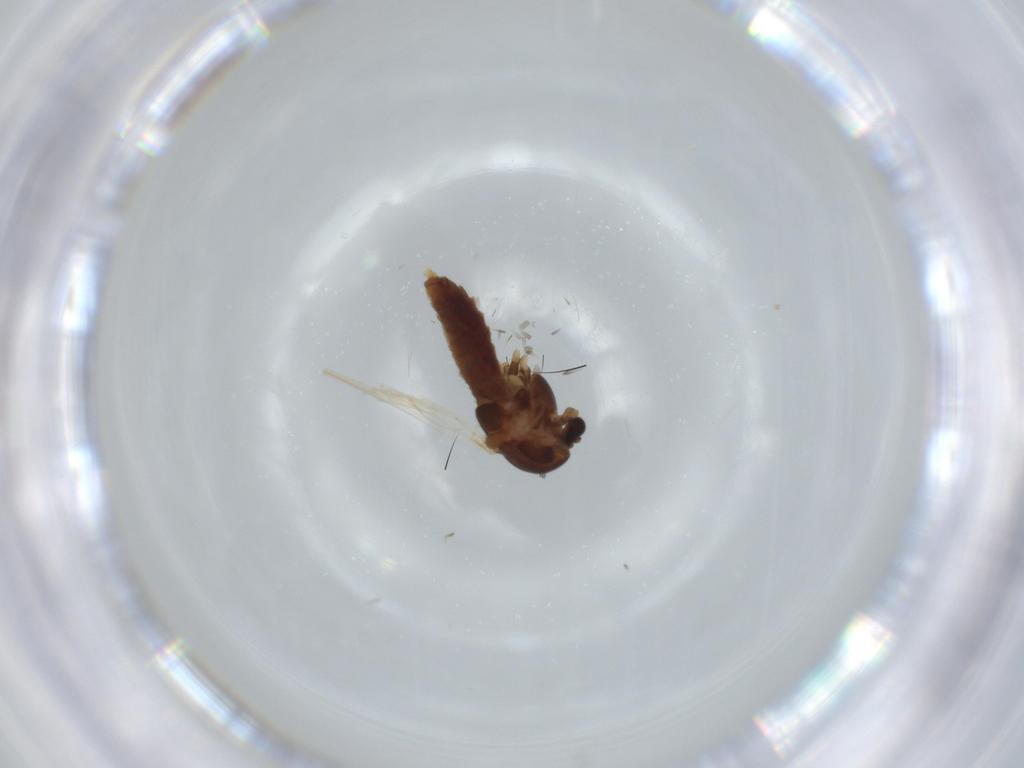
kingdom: Animalia
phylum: Arthropoda
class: Insecta
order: Diptera
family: Chironomidae
